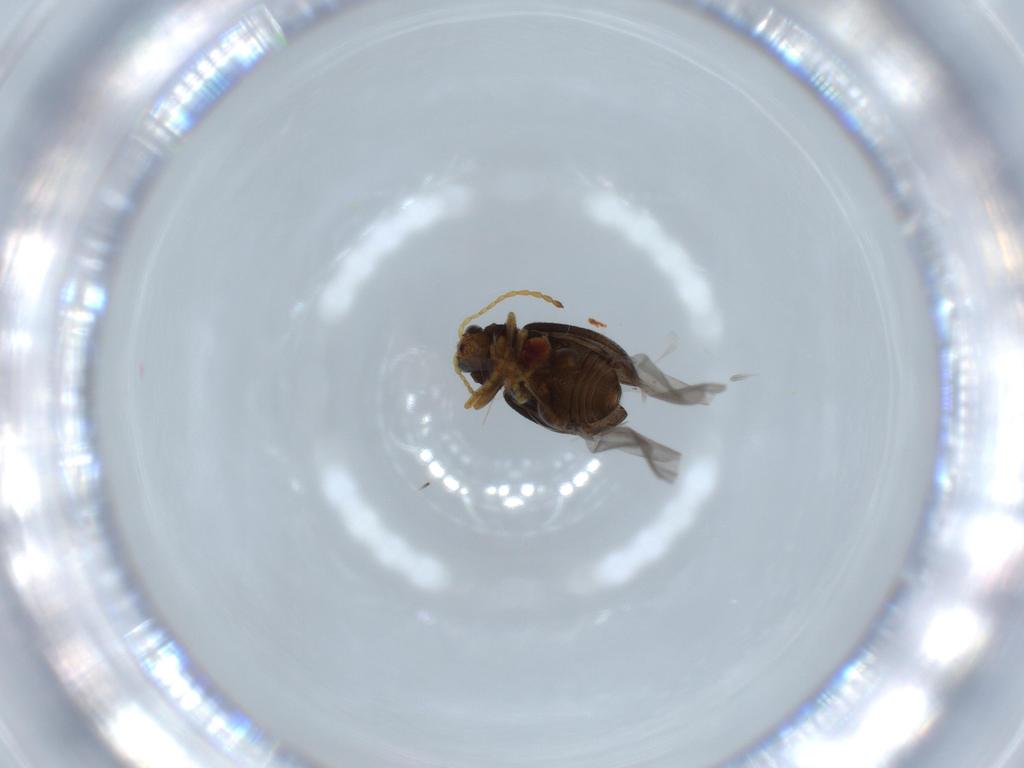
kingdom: Animalia
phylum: Arthropoda
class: Insecta
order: Coleoptera
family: Chrysomelidae
